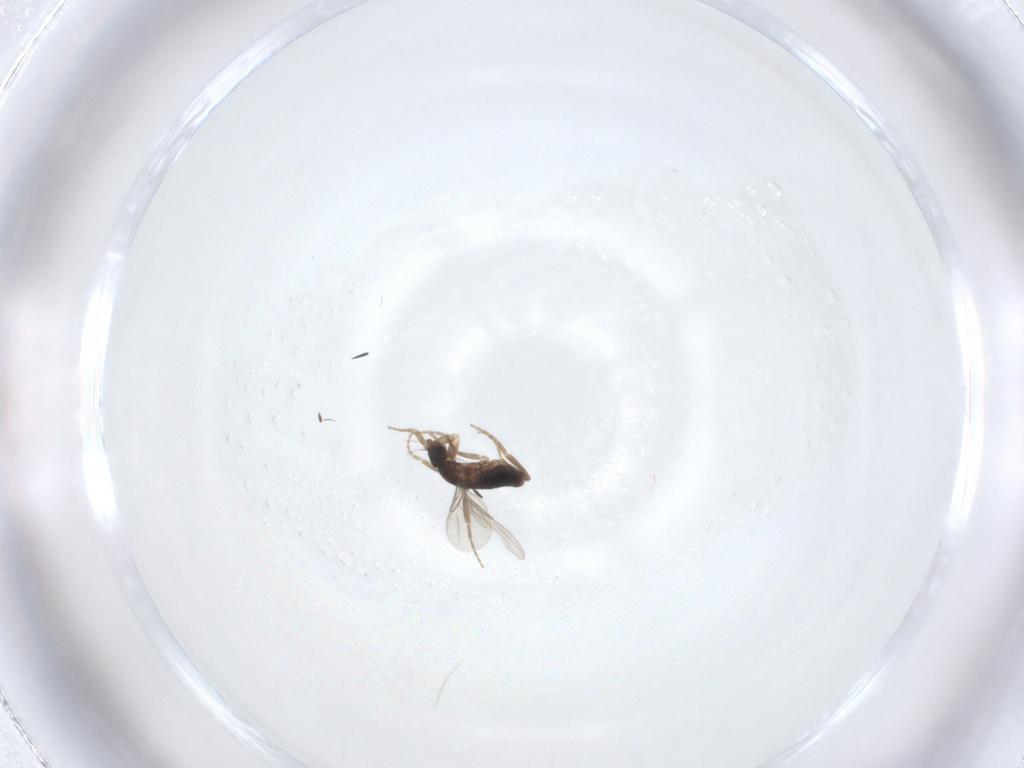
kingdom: Animalia
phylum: Arthropoda
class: Insecta
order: Diptera
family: Phoridae
